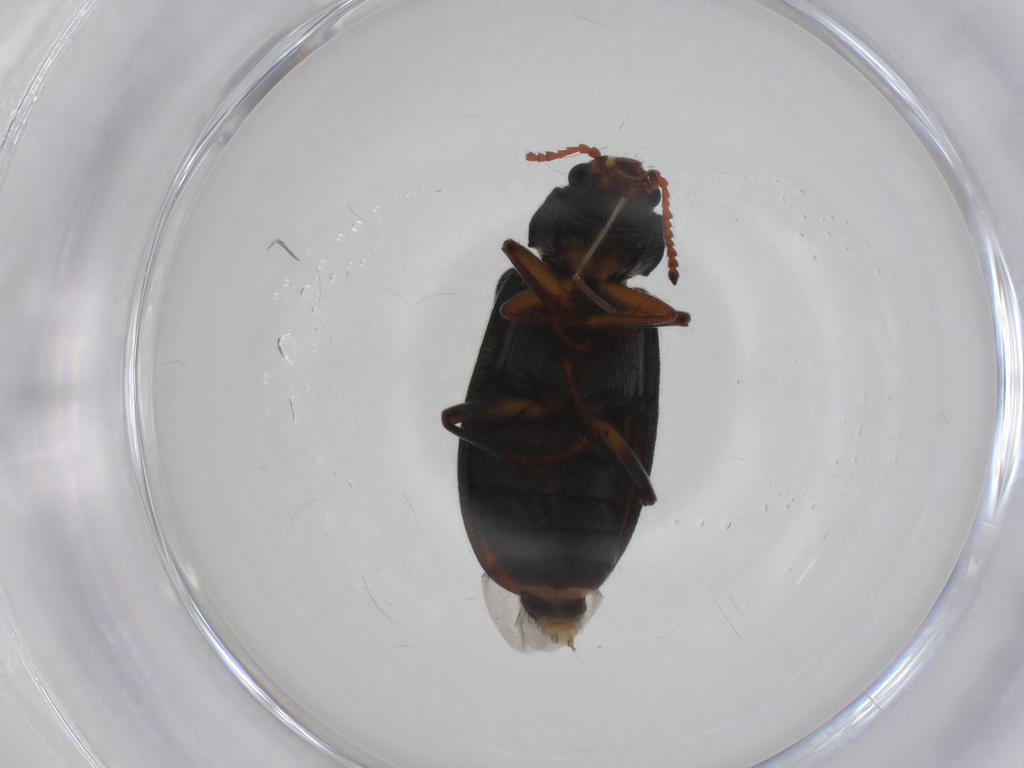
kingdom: Animalia
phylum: Arthropoda
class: Insecta
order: Coleoptera
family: Melyridae
